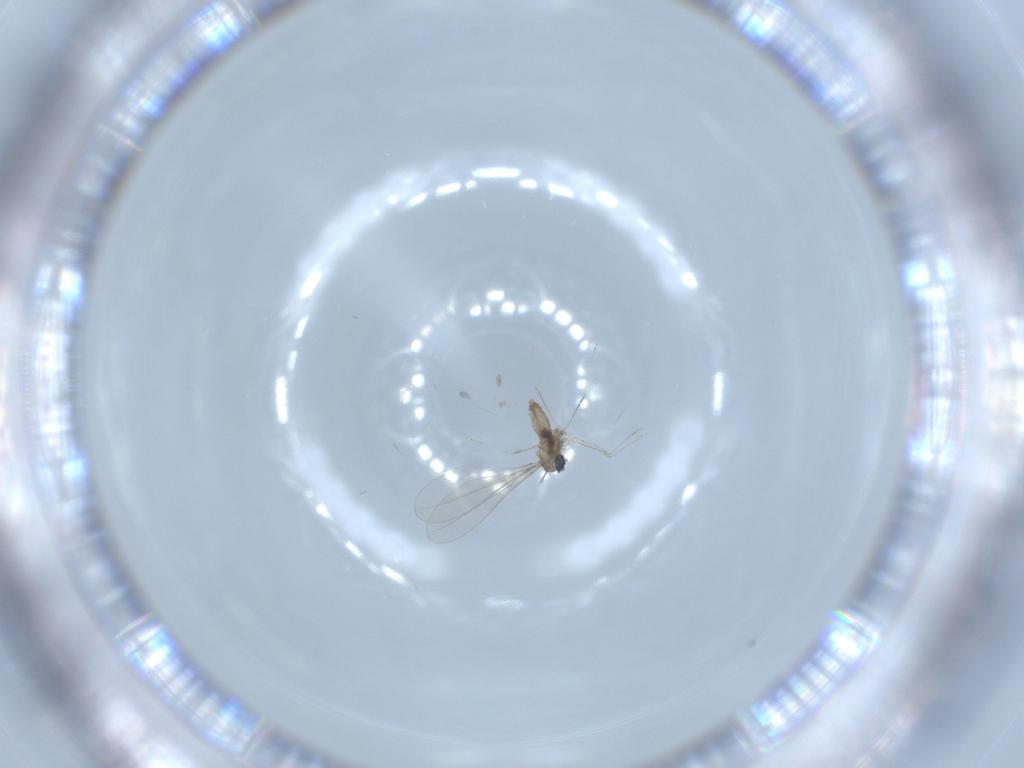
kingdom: Animalia
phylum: Arthropoda
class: Insecta
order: Diptera
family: Cecidomyiidae
